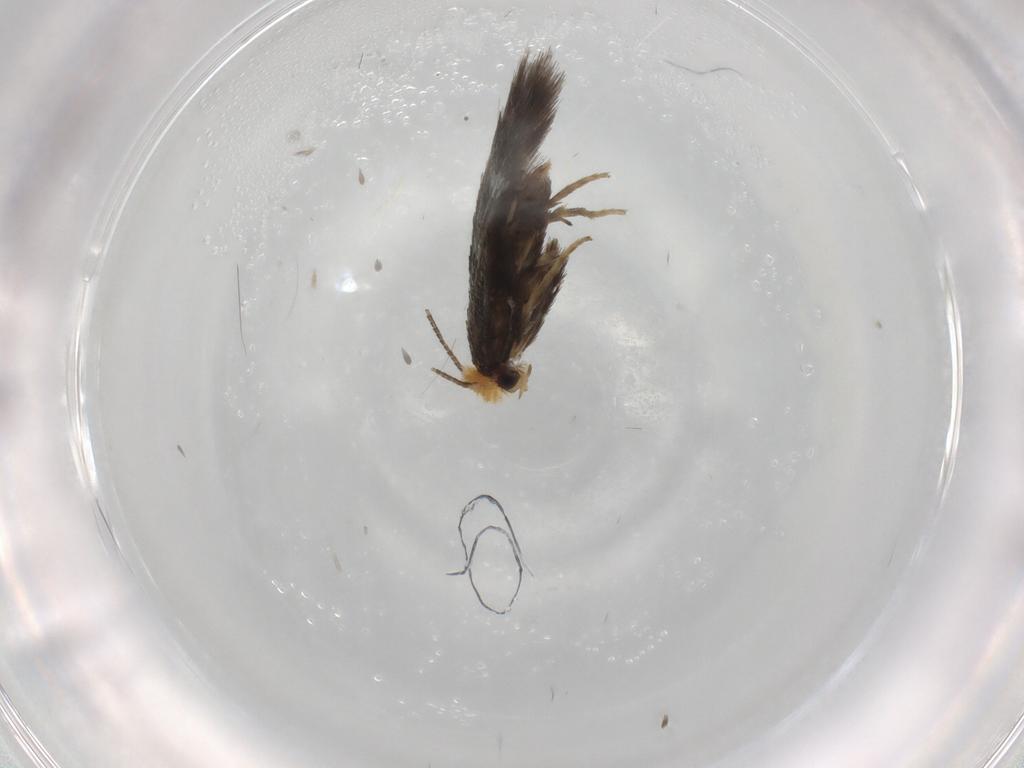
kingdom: Animalia
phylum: Arthropoda
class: Insecta
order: Lepidoptera
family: Nepticulidae
